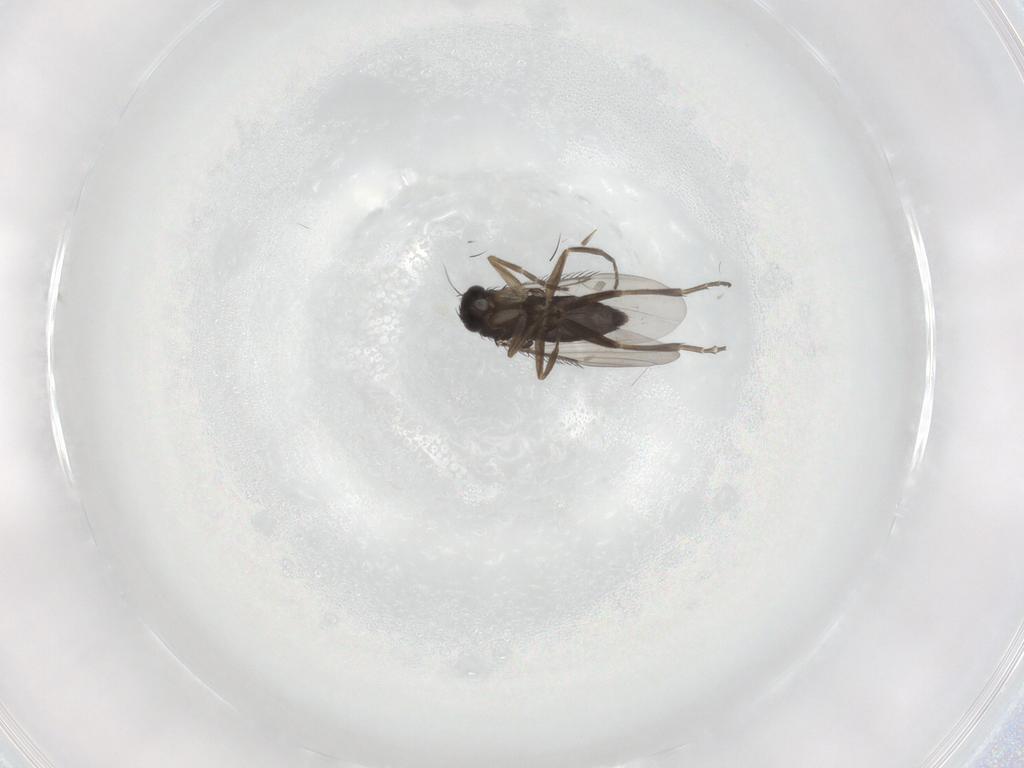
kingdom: Animalia
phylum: Arthropoda
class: Insecta
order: Diptera
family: Phoridae
